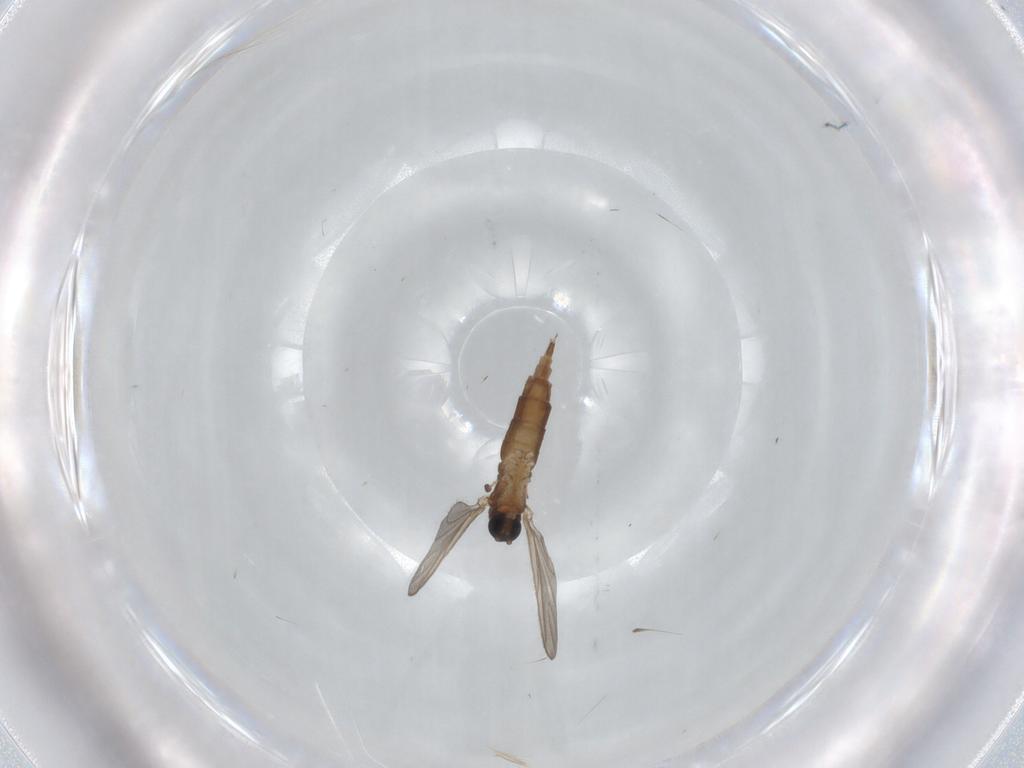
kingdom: Animalia
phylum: Arthropoda
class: Insecta
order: Diptera
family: Sciaridae
